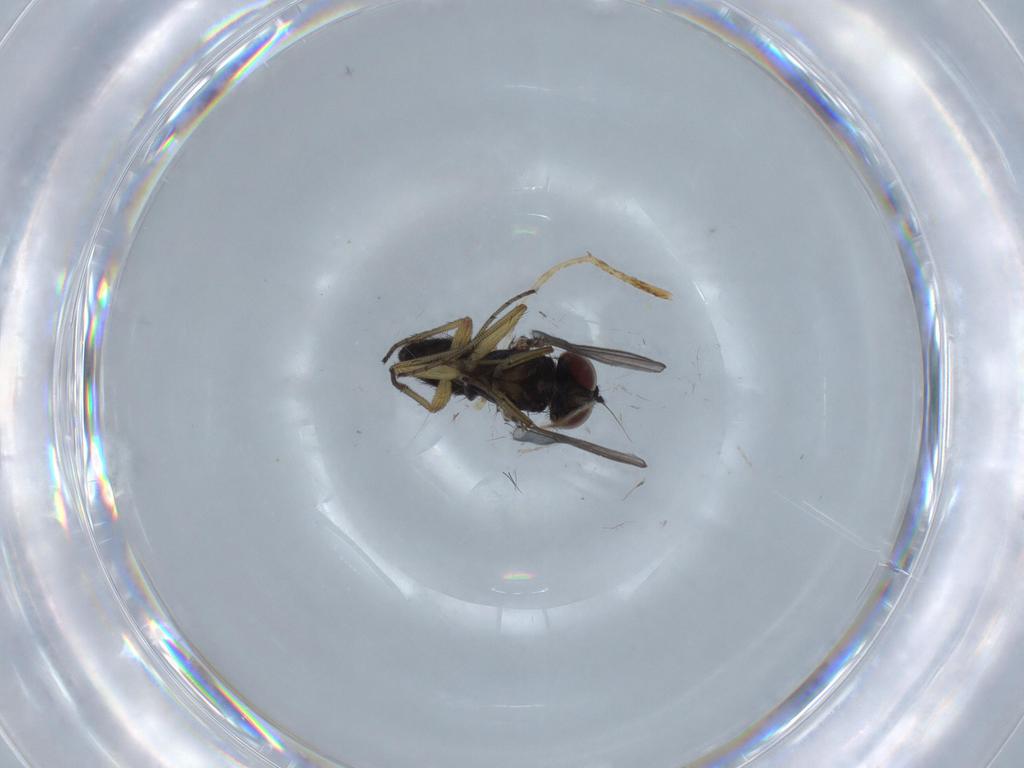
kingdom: Animalia
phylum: Arthropoda
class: Insecta
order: Diptera
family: Dolichopodidae
